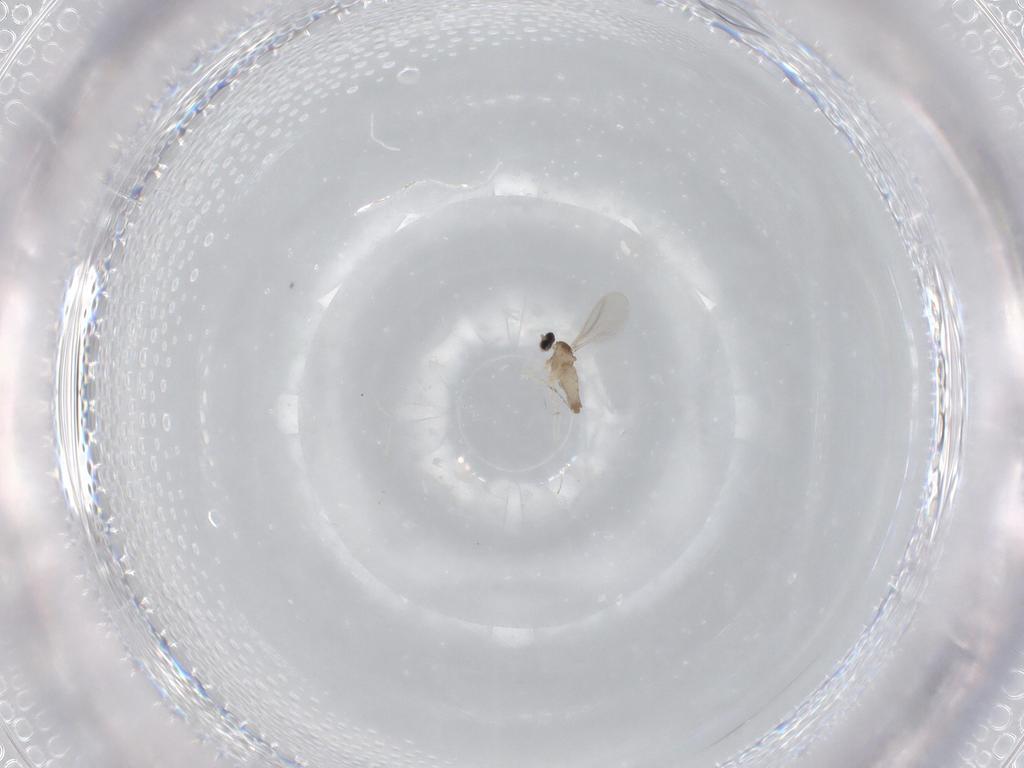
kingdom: Animalia
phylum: Arthropoda
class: Insecta
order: Diptera
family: Cecidomyiidae
